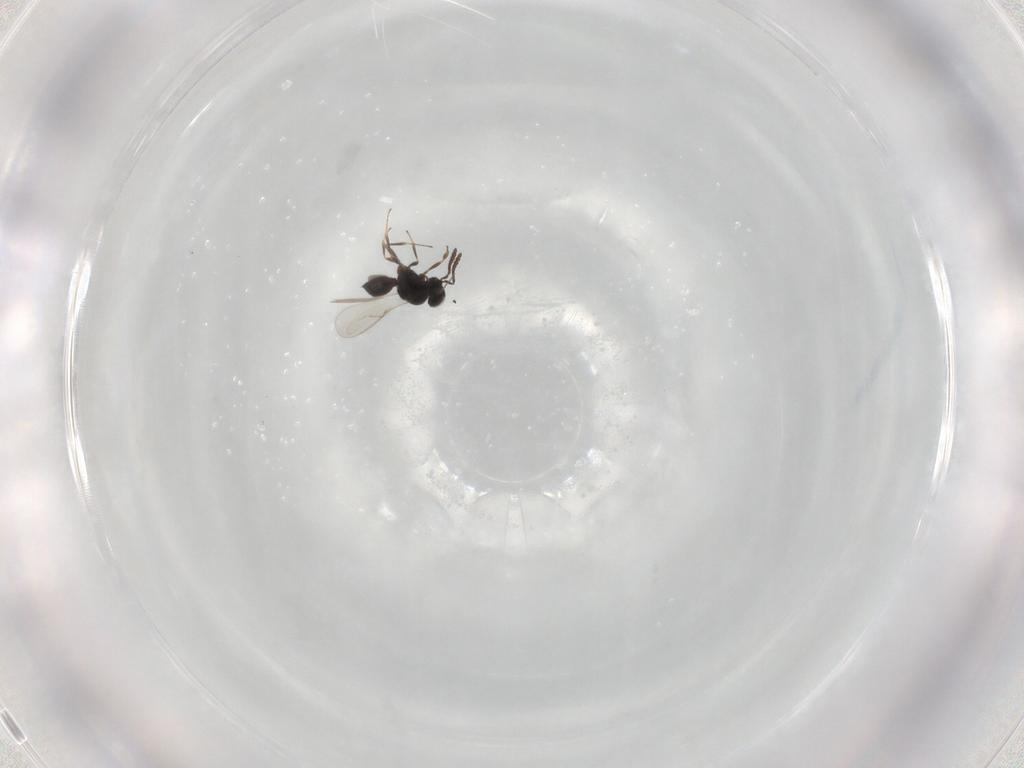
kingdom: Animalia
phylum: Arthropoda
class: Insecta
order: Hymenoptera
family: Scelionidae
